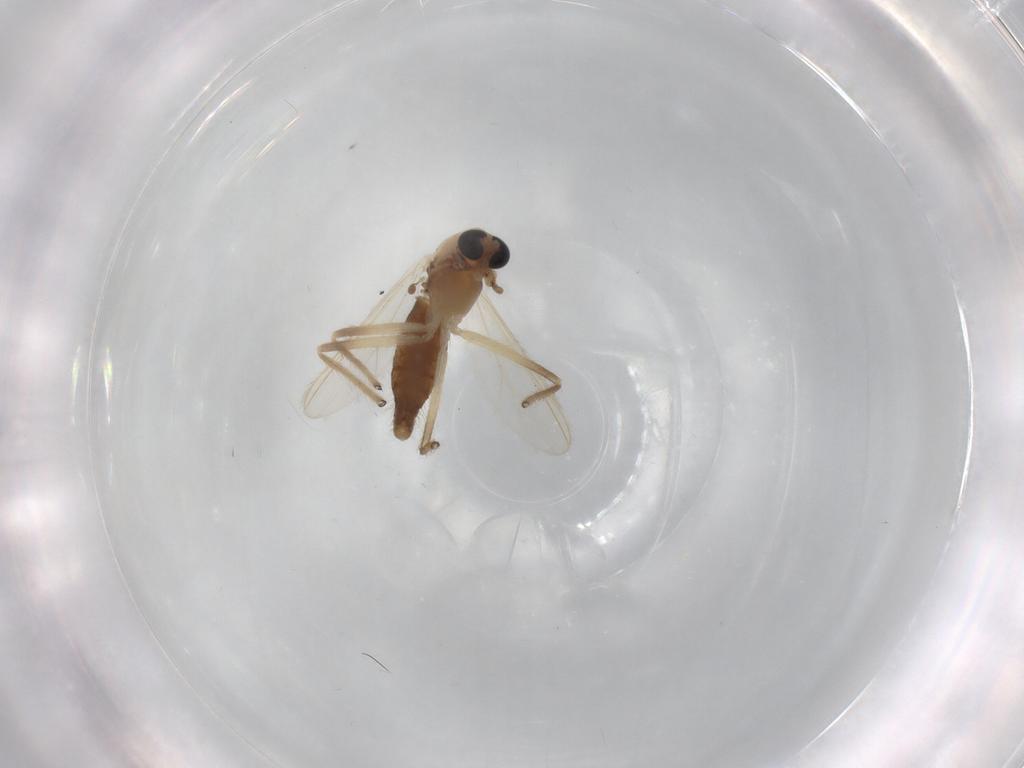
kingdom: Animalia
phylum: Arthropoda
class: Insecta
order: Diptera
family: Chironomidae
